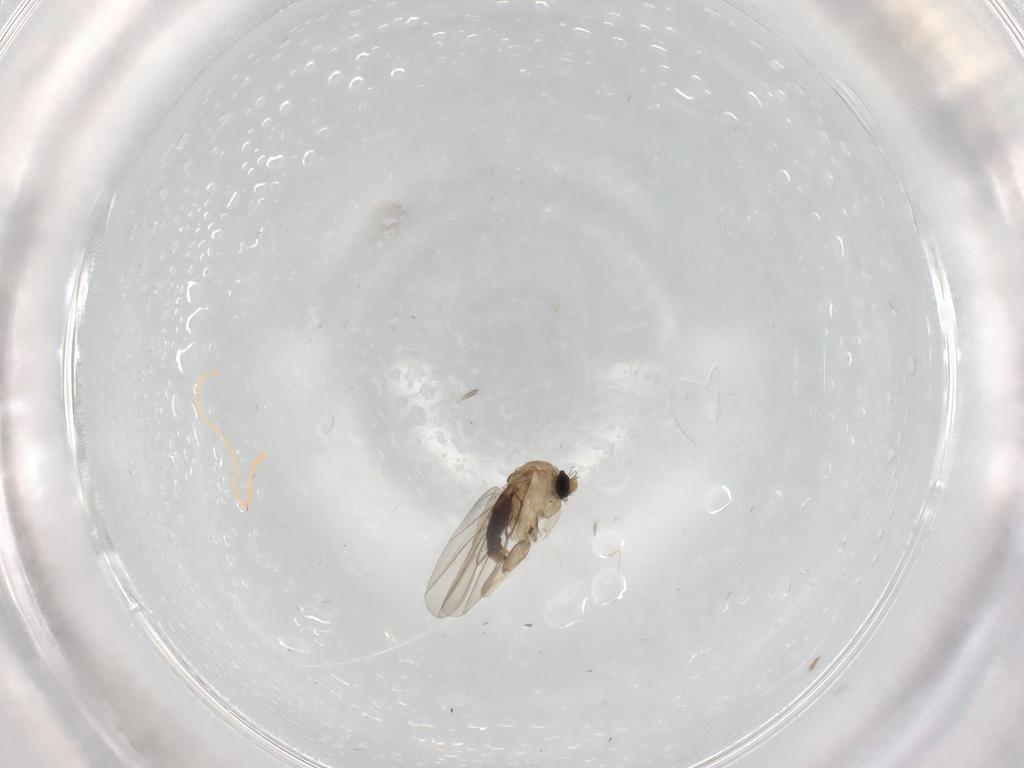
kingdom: Animalia
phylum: Arthropoda
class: Insecta
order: Diptera
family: Phoridae
